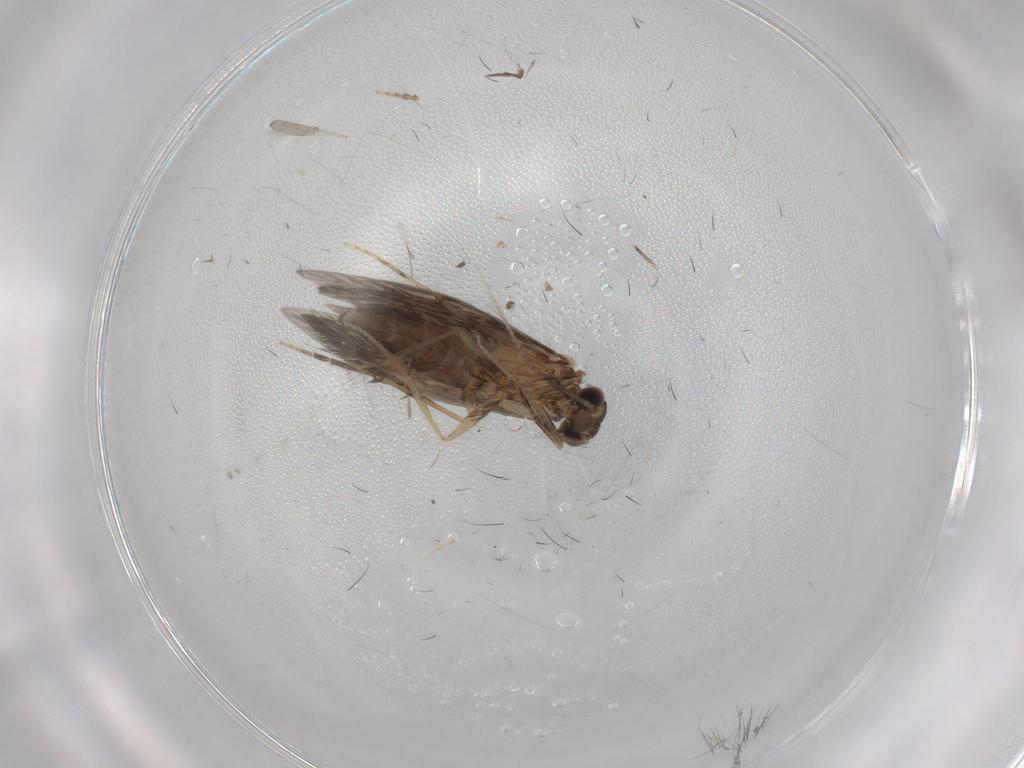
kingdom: Animalia
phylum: Arthropoda
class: Insecta
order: Trichoptera
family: Hydroptilidae
